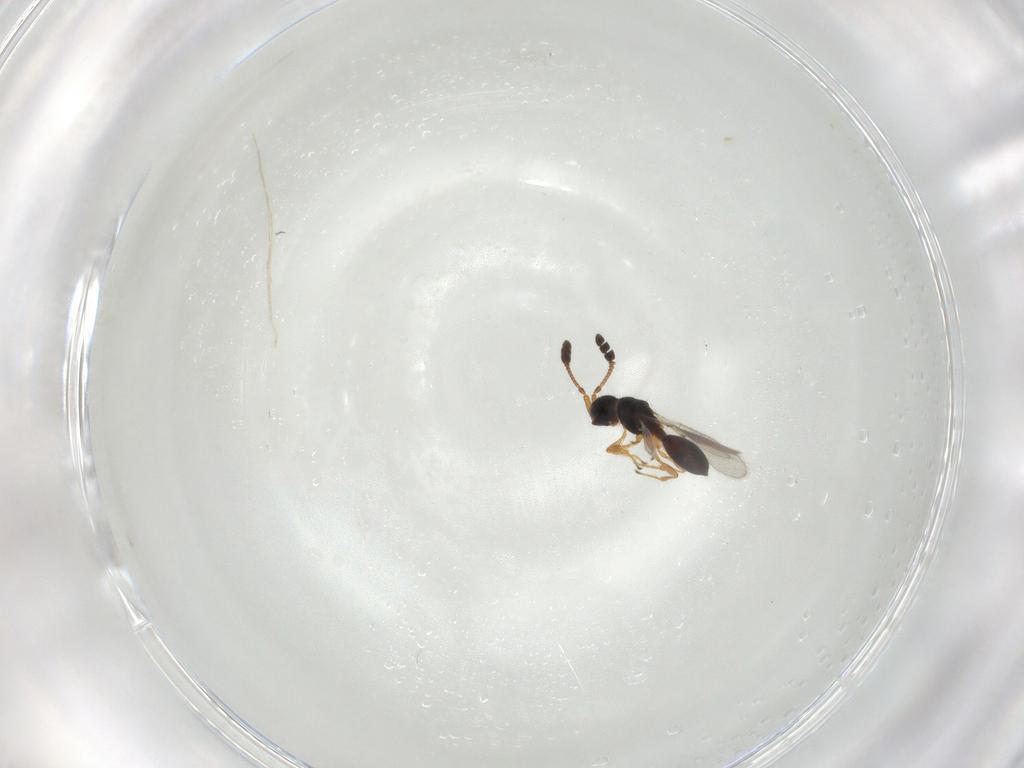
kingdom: Animalia
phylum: Arthropoda
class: Insecta
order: Hymenoptera
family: Diapriidae
